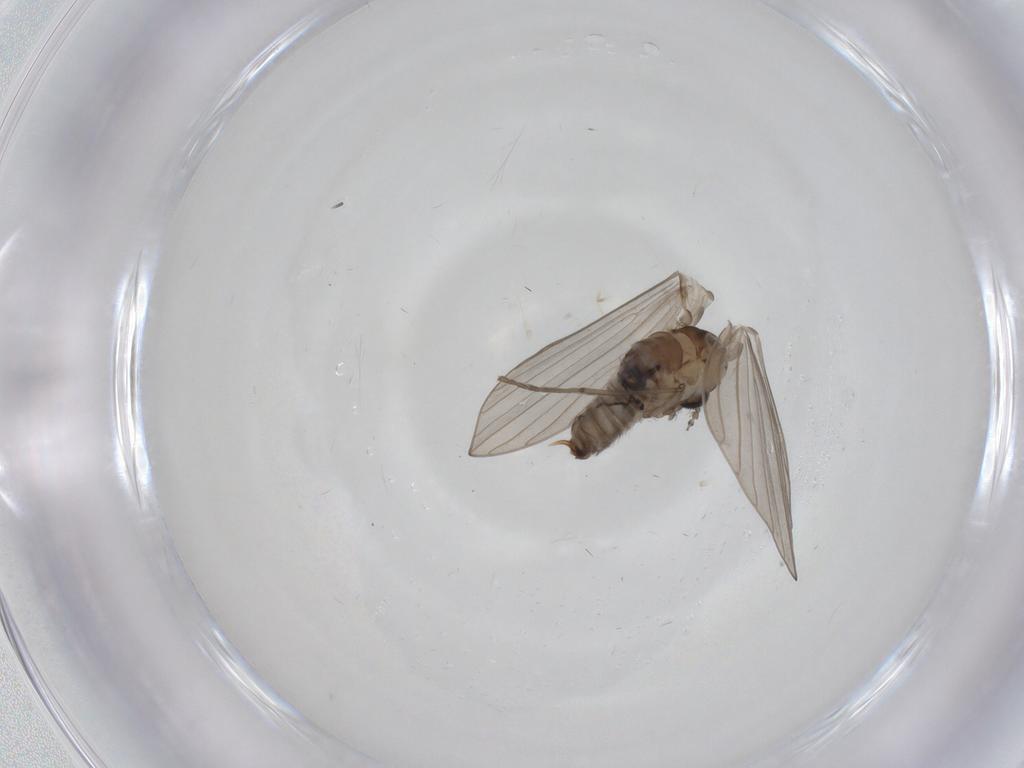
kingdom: Animalia
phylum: Arthropoda
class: Insecta
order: Diptera
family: Psychodidae
